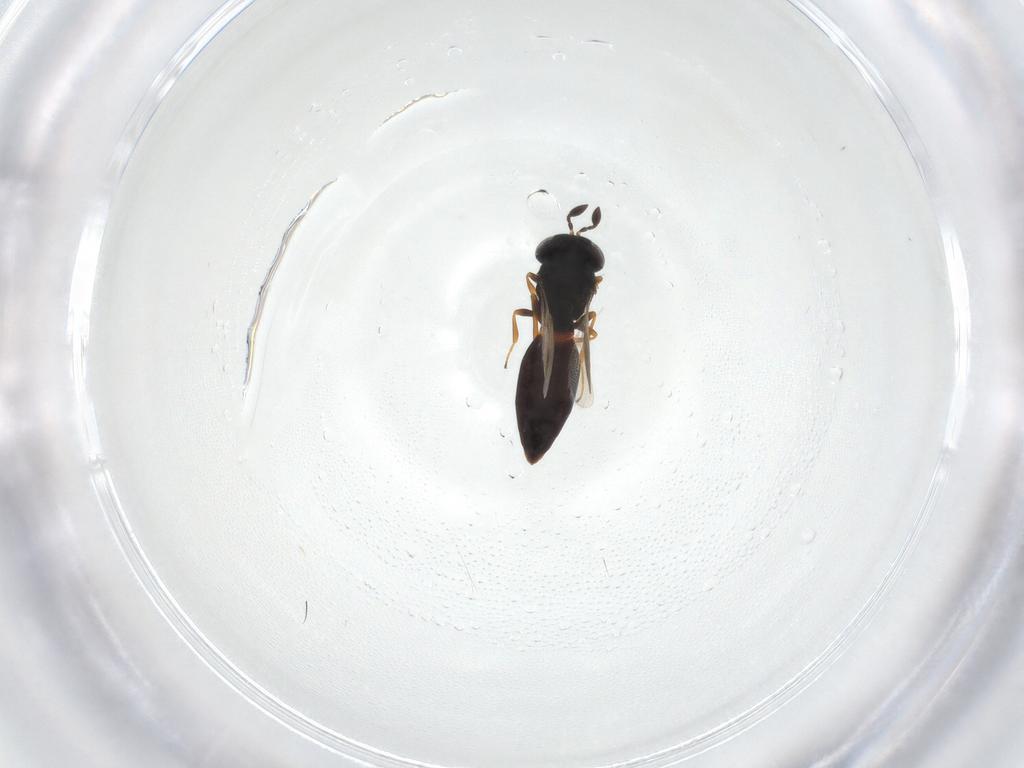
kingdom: Animalia
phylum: Arthropoda
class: Insecta
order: Hymenoptera
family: Scelionidae
